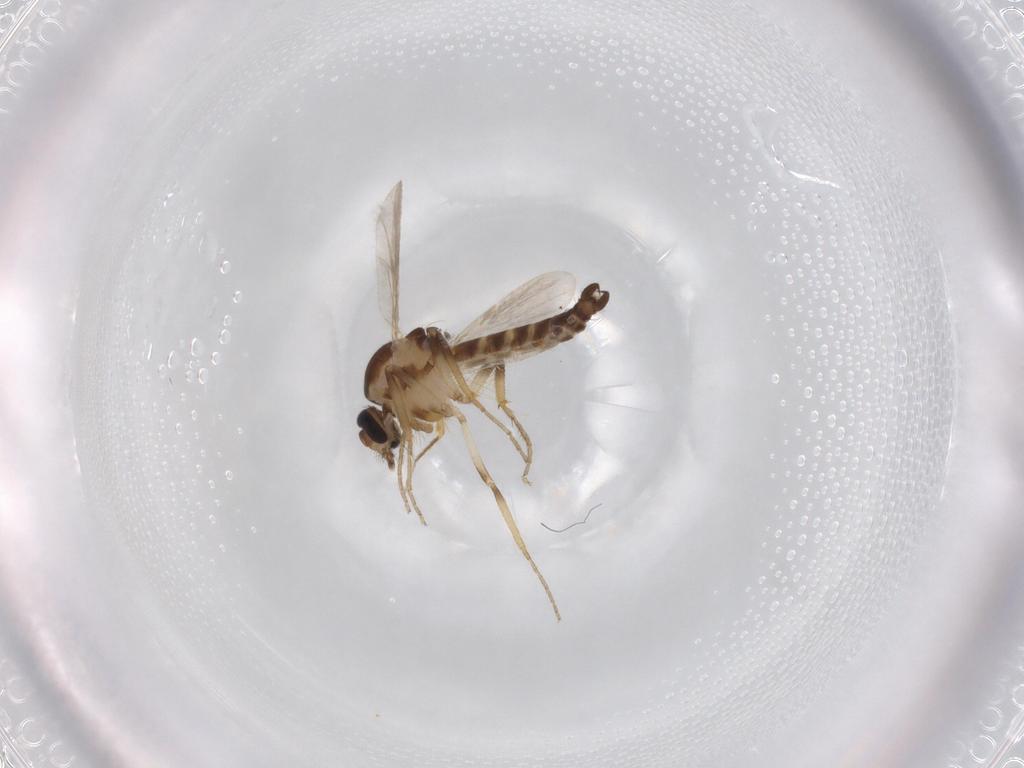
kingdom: Animalia
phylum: Arthropoda
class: Insecta
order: Diptera
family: Ceratopogonidae
